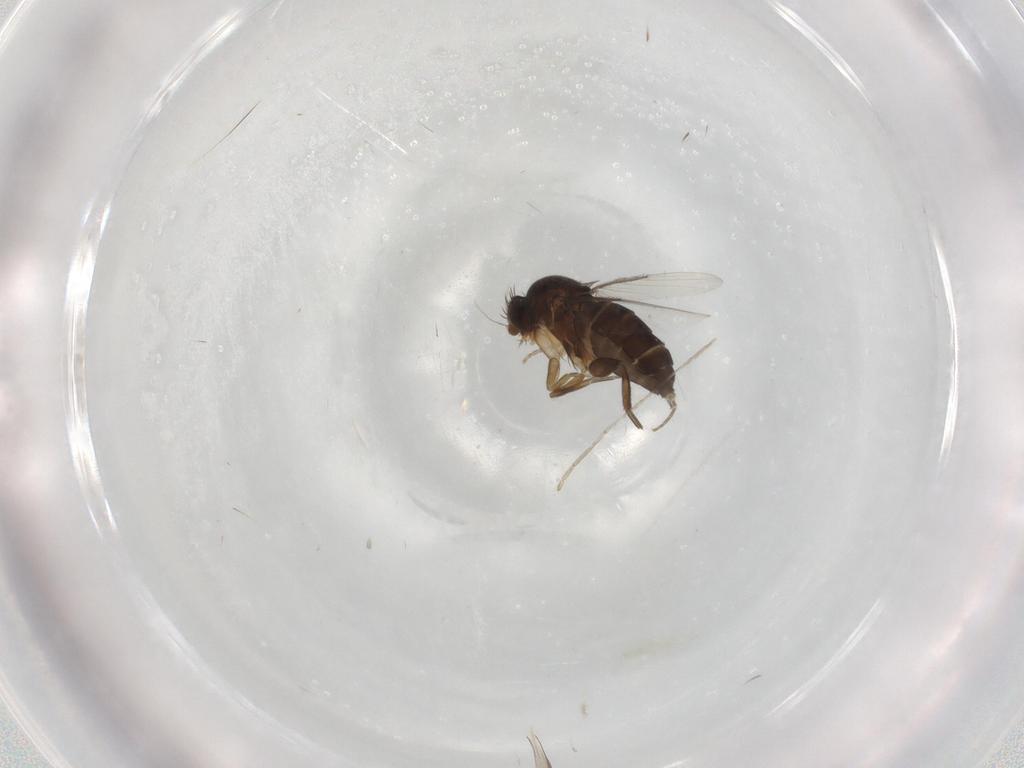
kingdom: Animalia
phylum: Arthropoda
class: Insecta
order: Diptera
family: Phoridae
